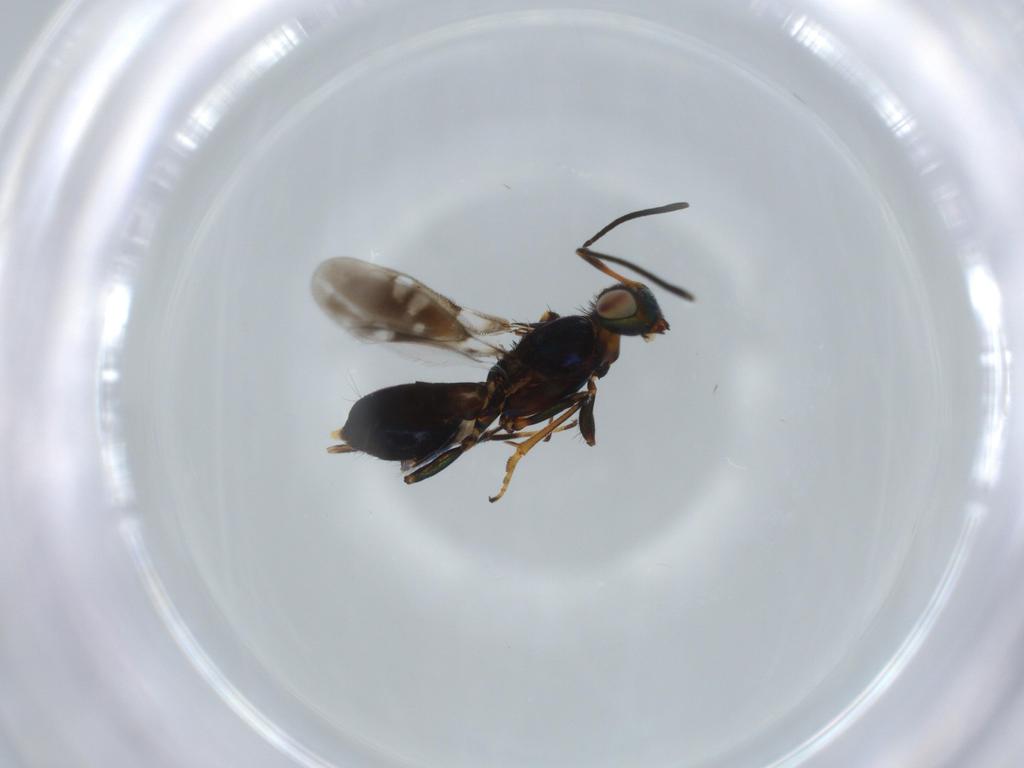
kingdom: Animalia
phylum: Arthropoda
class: Insecta
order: Hymenoptera
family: Eupelmidae
